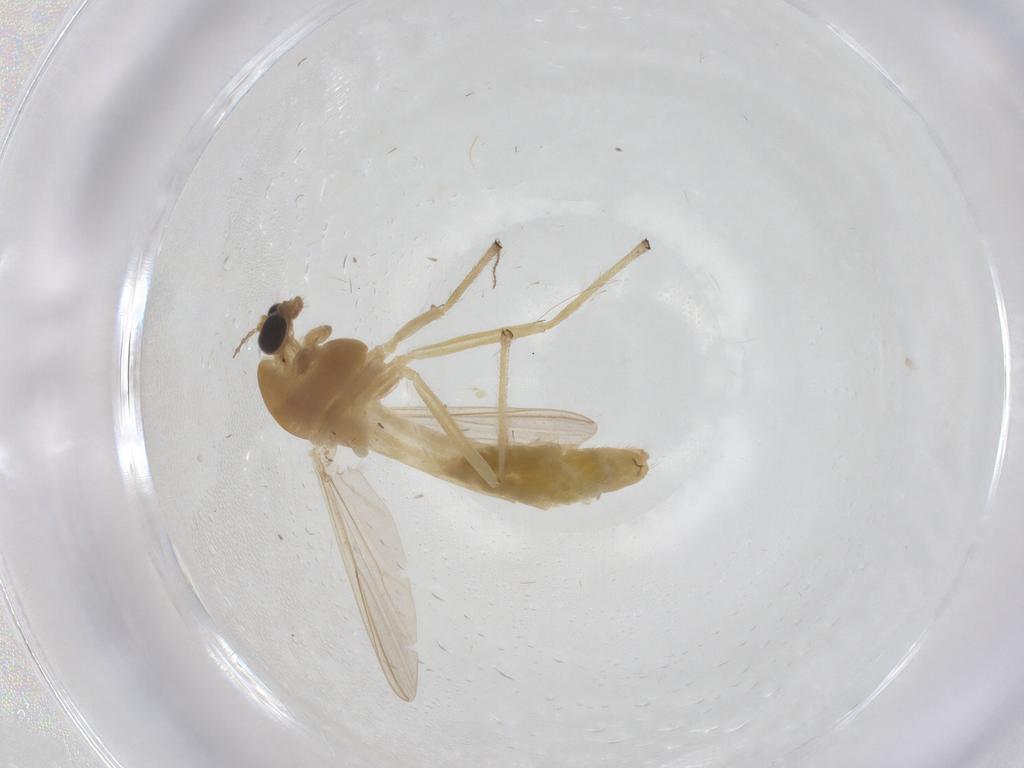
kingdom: Animalia
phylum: Arthropoda
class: Insecta
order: Diptera
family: Chironomidae
